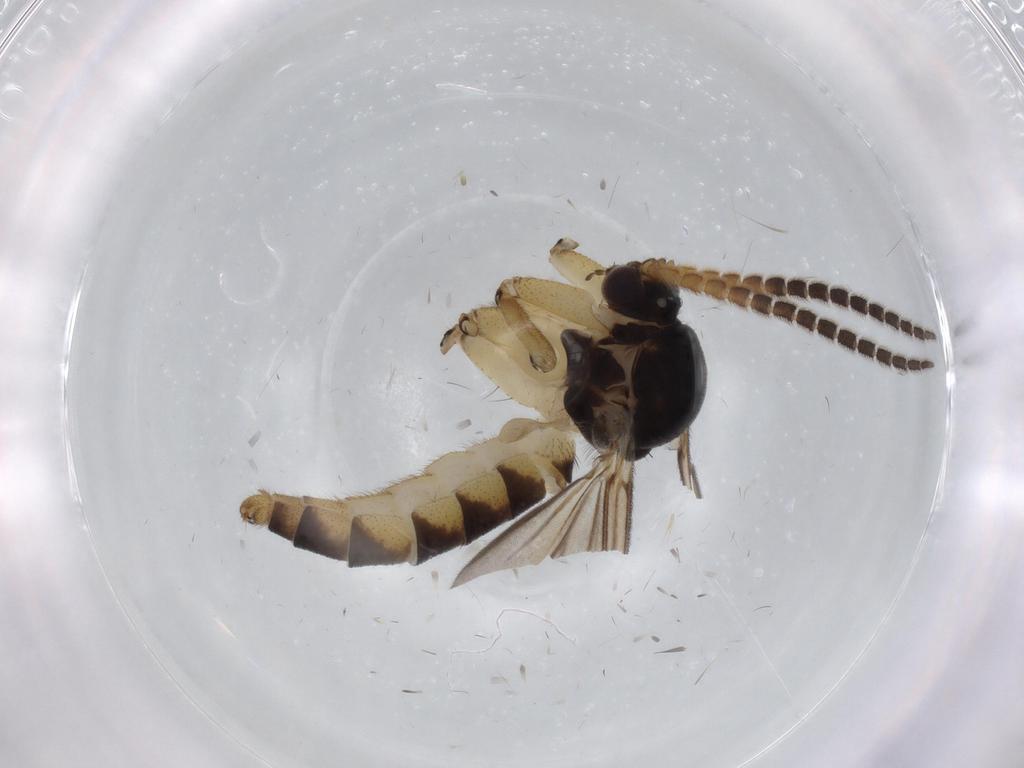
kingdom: Animalia
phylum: Arthropoda
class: Insecta
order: Diptera
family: Mycetophilidae
